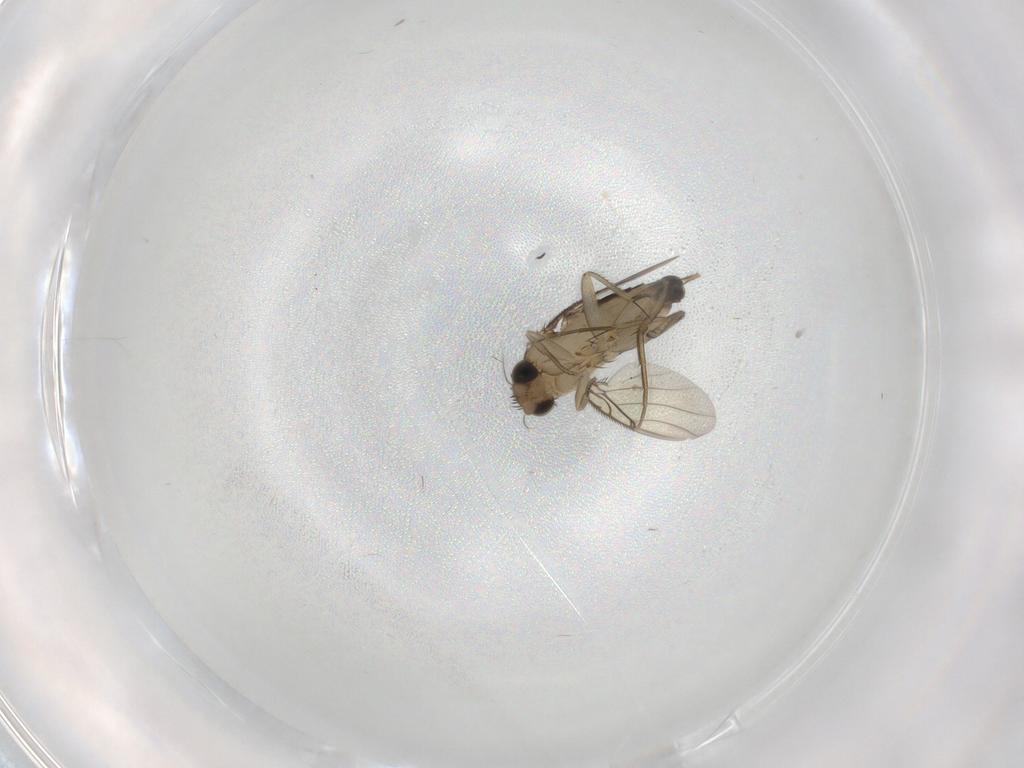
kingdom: Animalia
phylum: Arthropoda
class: Insecta
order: Diptera
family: Phoridae
